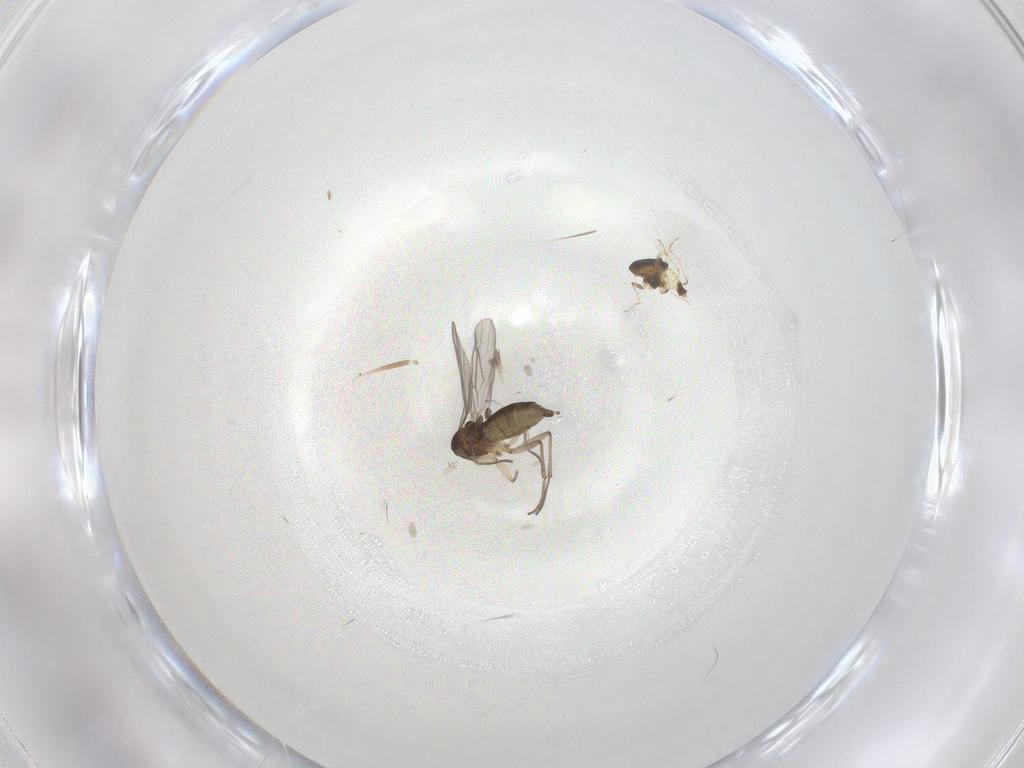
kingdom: Animalia
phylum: Arthropoda
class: Insecta
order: Diptera
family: Sciaridae
